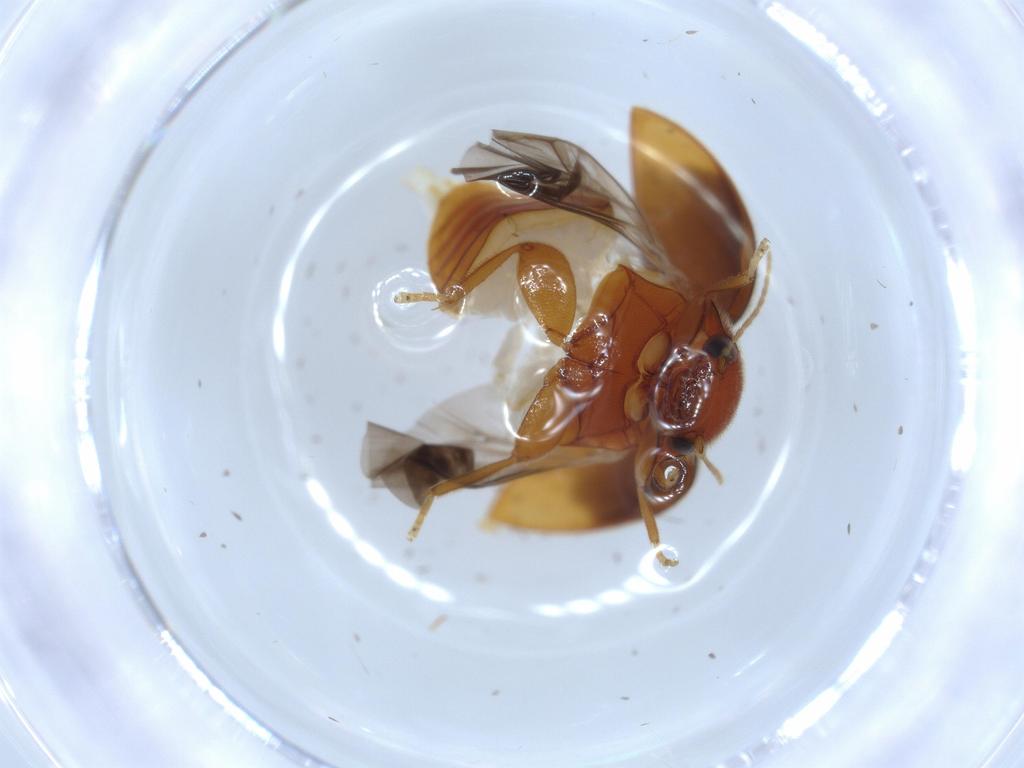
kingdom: Animalia
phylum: Arthropoda
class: Insecta
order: Coleoptera
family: Scirtidae
